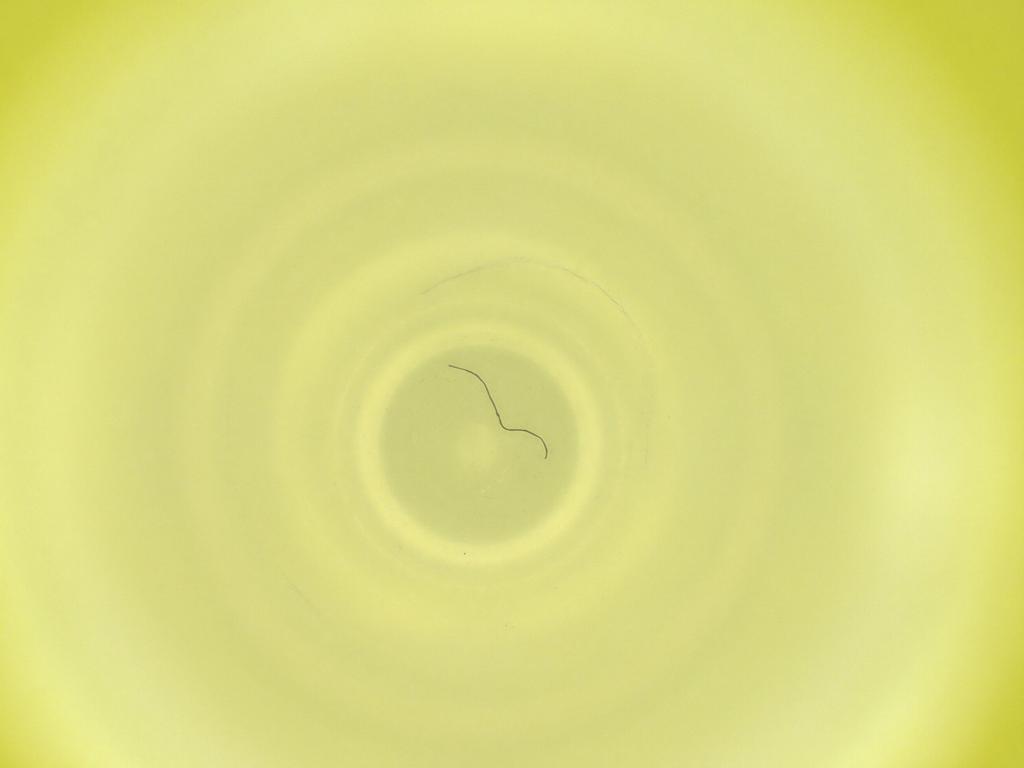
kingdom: Animalia
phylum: Arthropoda
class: Insecta
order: Diptera
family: Cecidomyiidae
